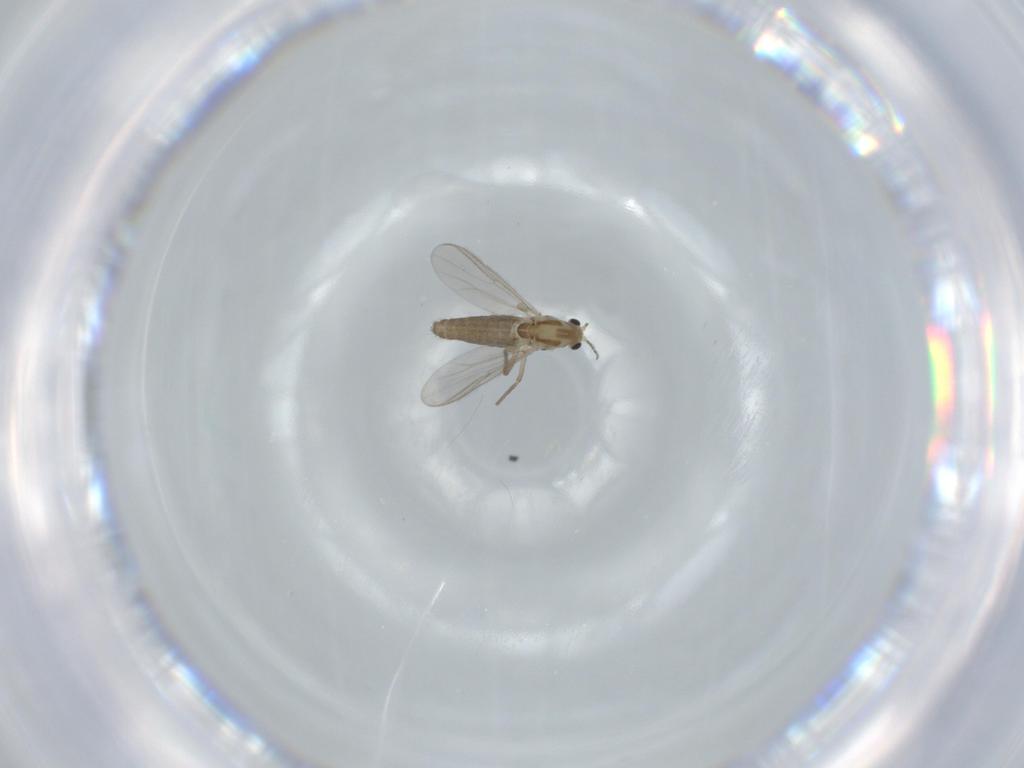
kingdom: Animalia
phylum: Arthropoda
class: Insecta
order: Diptera
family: Chironomidae
